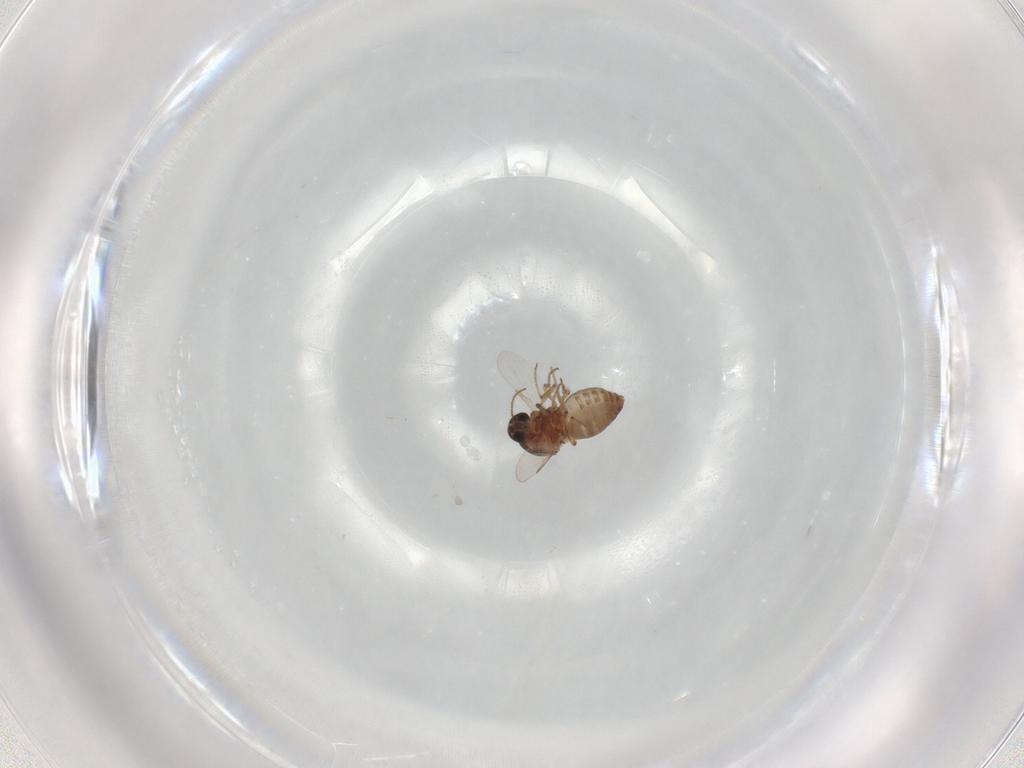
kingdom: Animalia
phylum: Arthropoda
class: Insecta
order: Diptera
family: Ceratopogonidae
